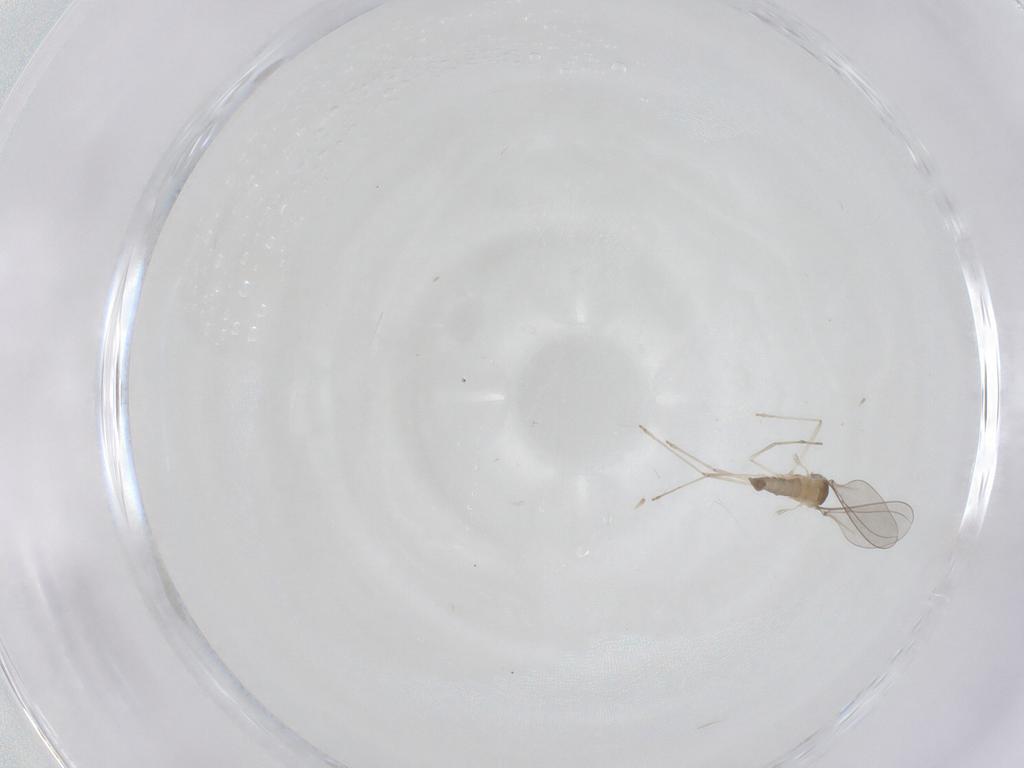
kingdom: Animalia
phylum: Arthropoda
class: Insecta
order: Diptera
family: Cecidomyiidae
